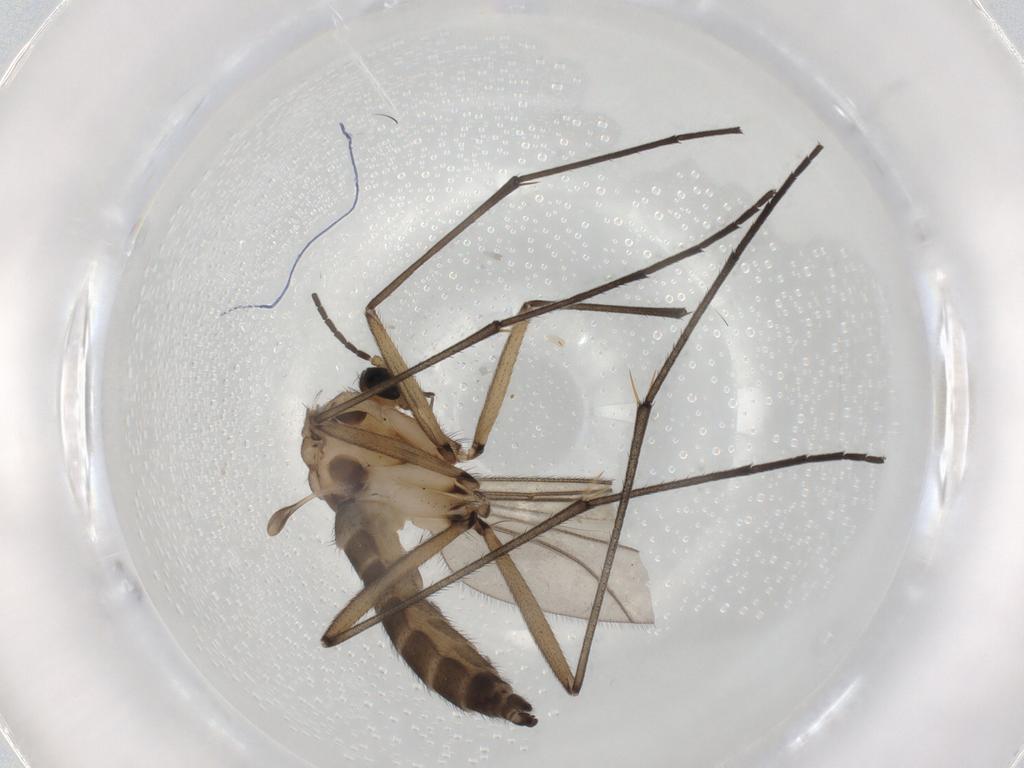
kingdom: Animalia
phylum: Arthropoda
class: Insecta
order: Diptera
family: Sciaridae
